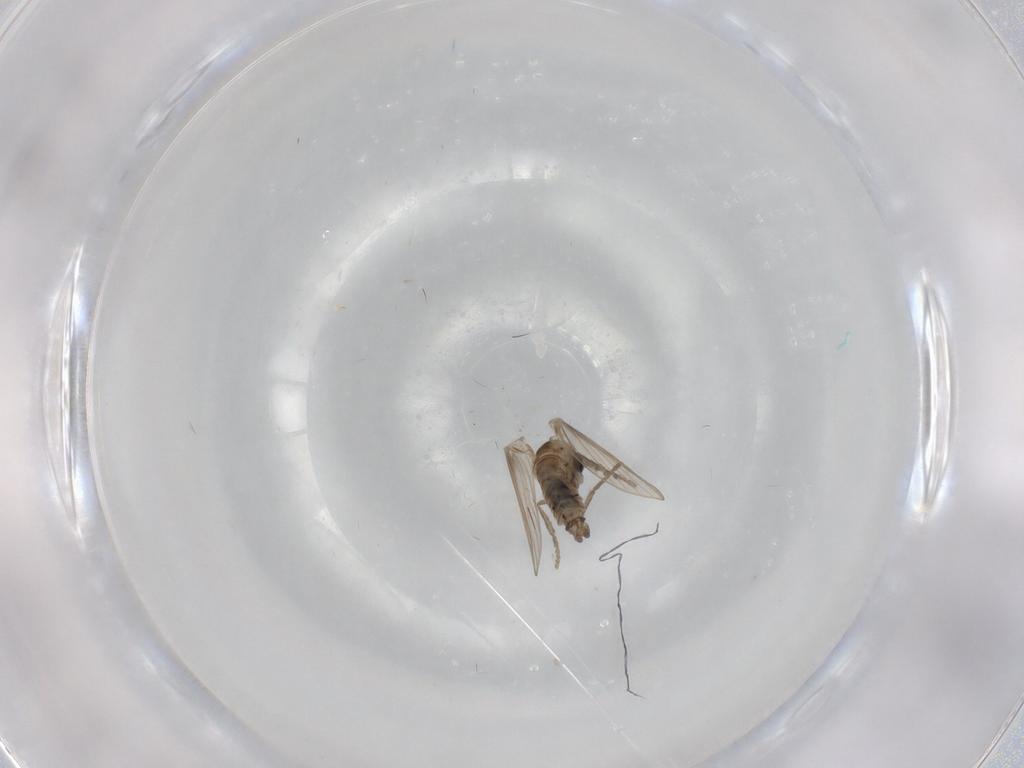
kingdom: Animalia
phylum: Arthropoda
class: Insecta
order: Diptera
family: Psychodidae
